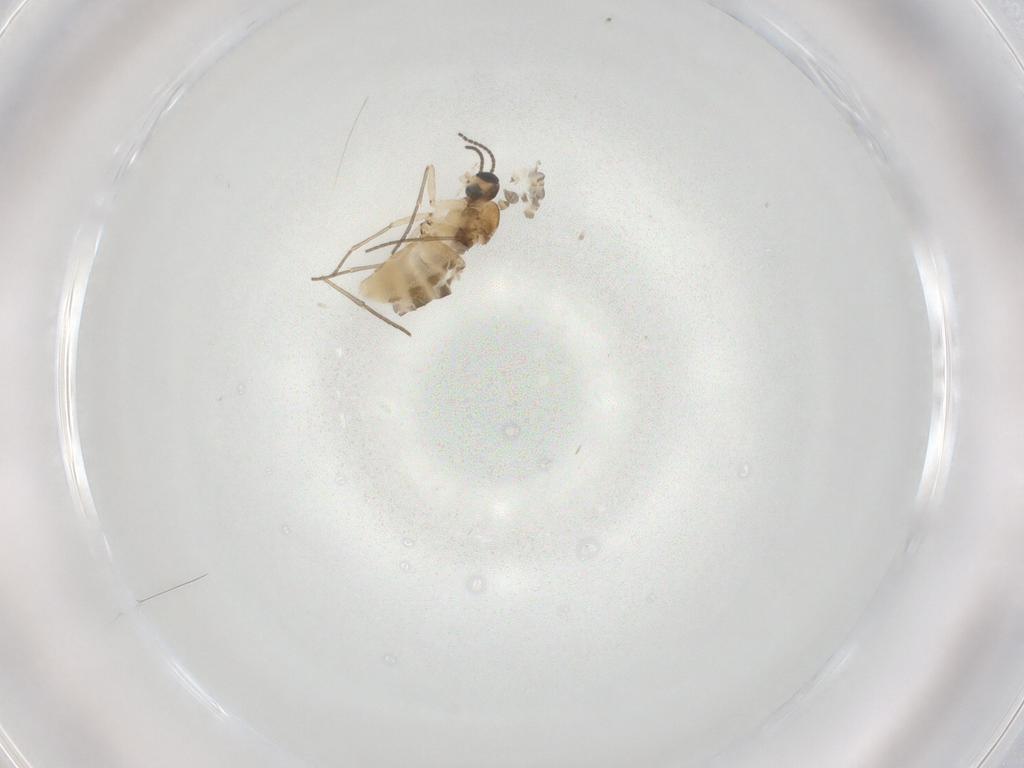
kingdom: Animalia
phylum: Arthropoda
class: Insecta
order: Diptera
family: Sciaridae
